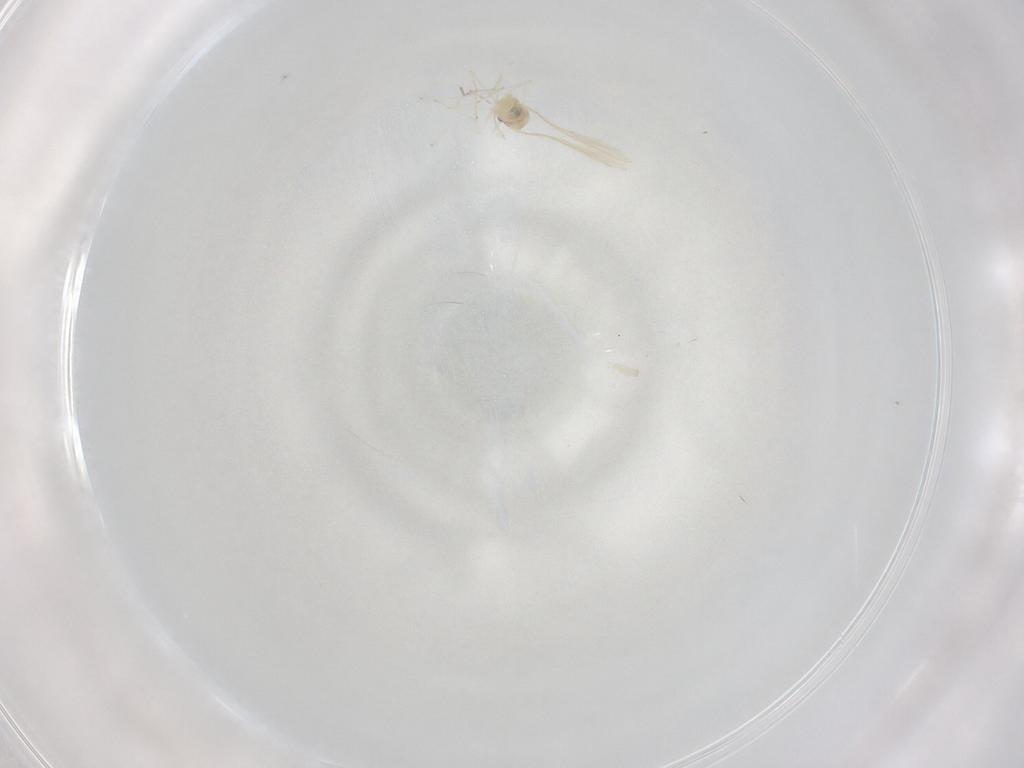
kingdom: Animalia
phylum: Arthropoda
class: Insecta
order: Diptera
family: Cecidomyiidae
